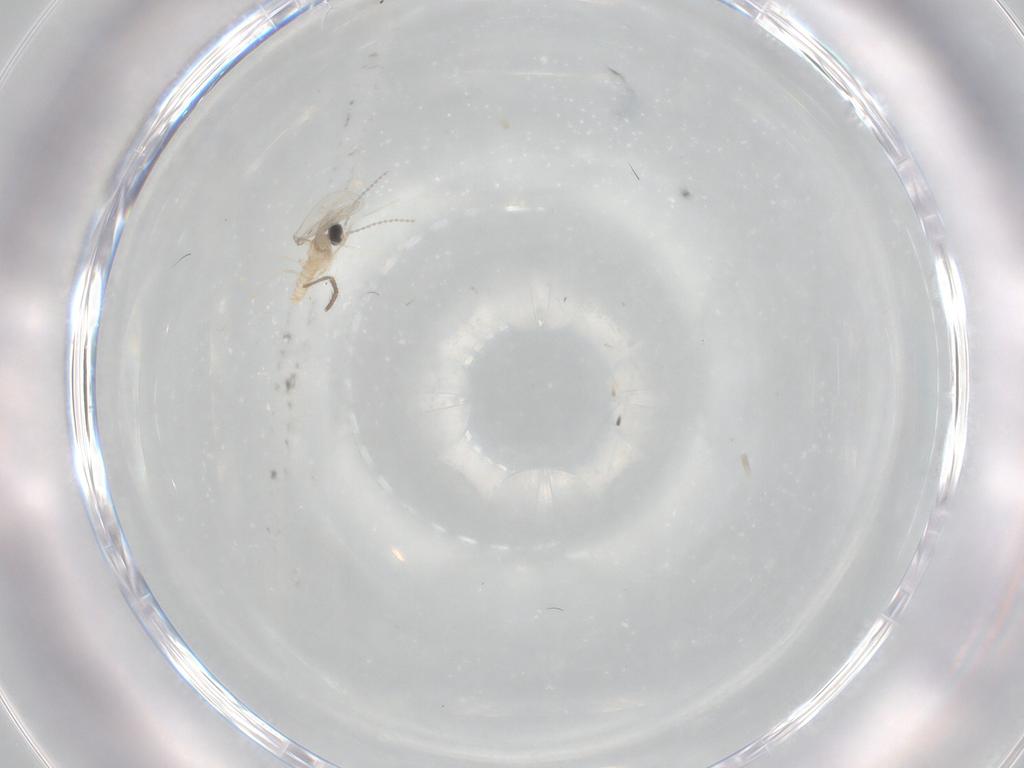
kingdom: Animalia
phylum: Arthropoda
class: Insecta
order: Diptera
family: Cecidomyiidae
